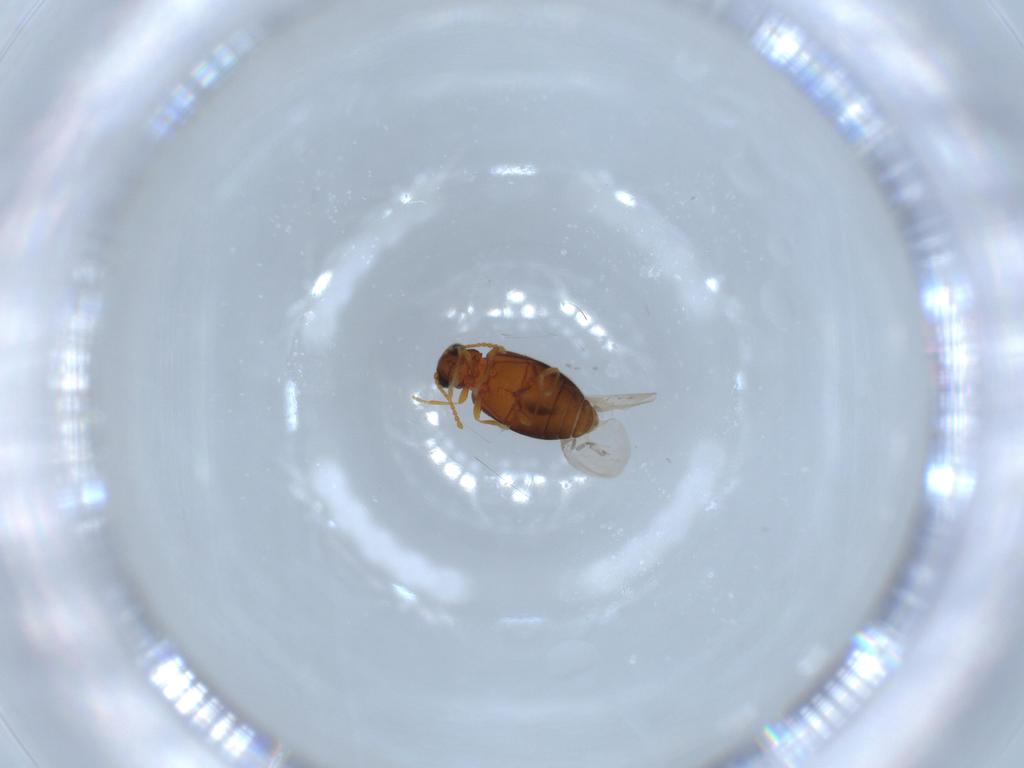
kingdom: Animalia
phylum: Arthropoda
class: Insecta
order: Coleoptera
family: Aderidae
